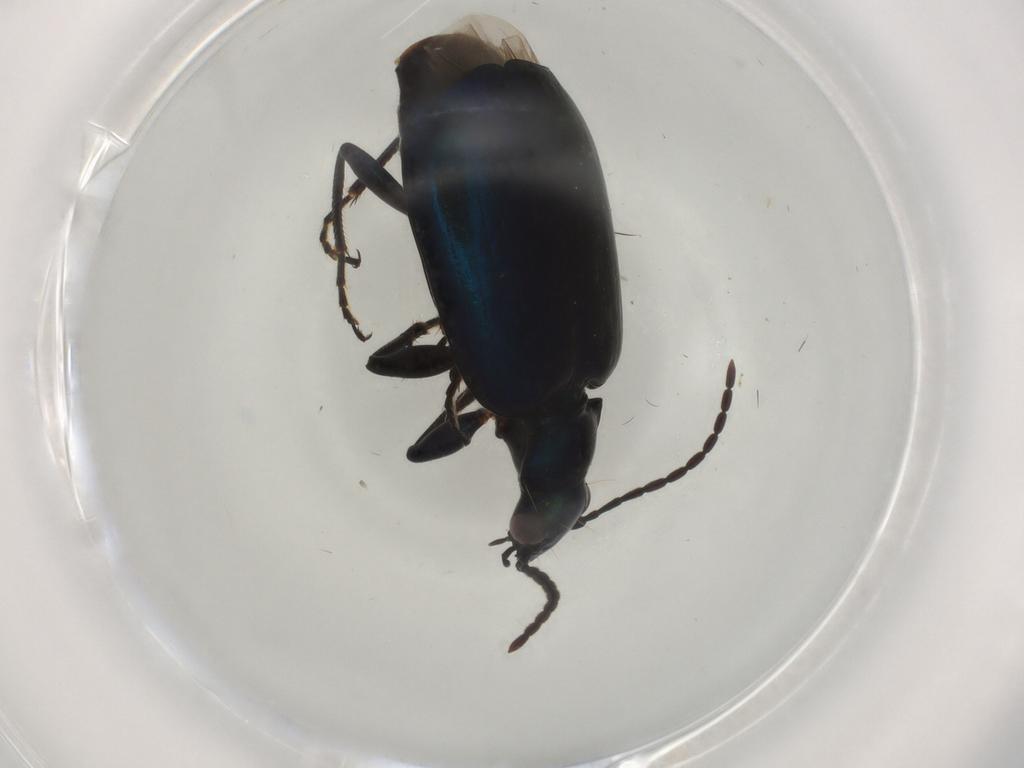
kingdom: Animalia
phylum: Arthropoda
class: Insecta
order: Coleoptera
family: Carabidae
